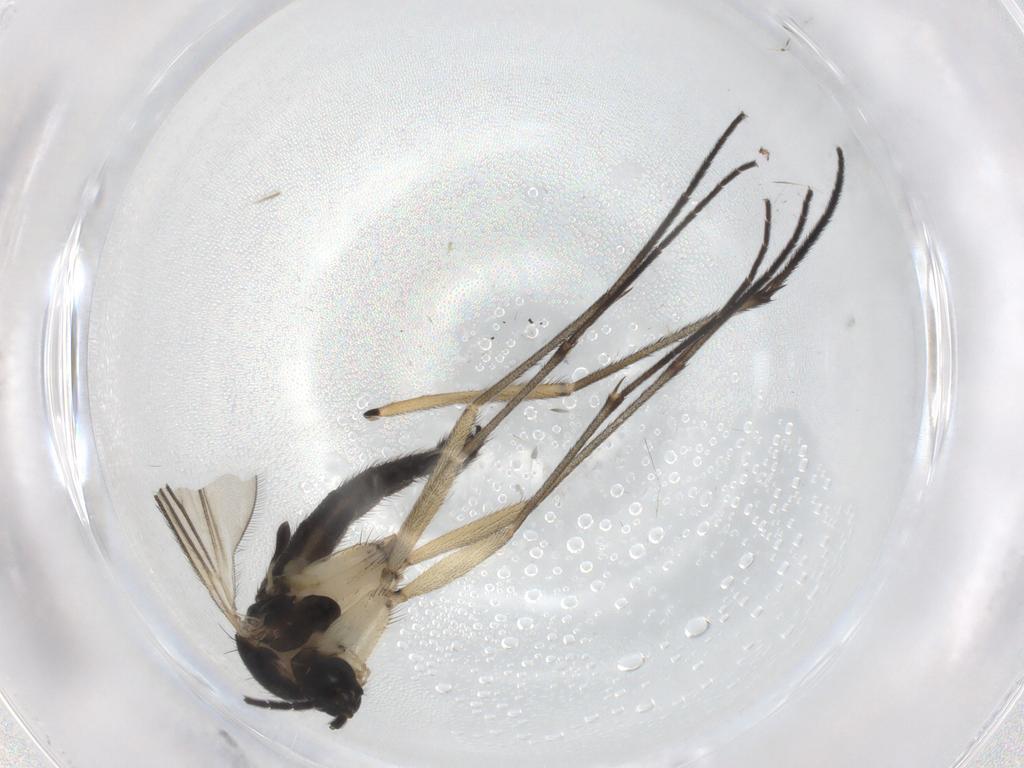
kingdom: Animalia
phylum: Arthropoda
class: Insecta
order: Diptera
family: Sciaridae
